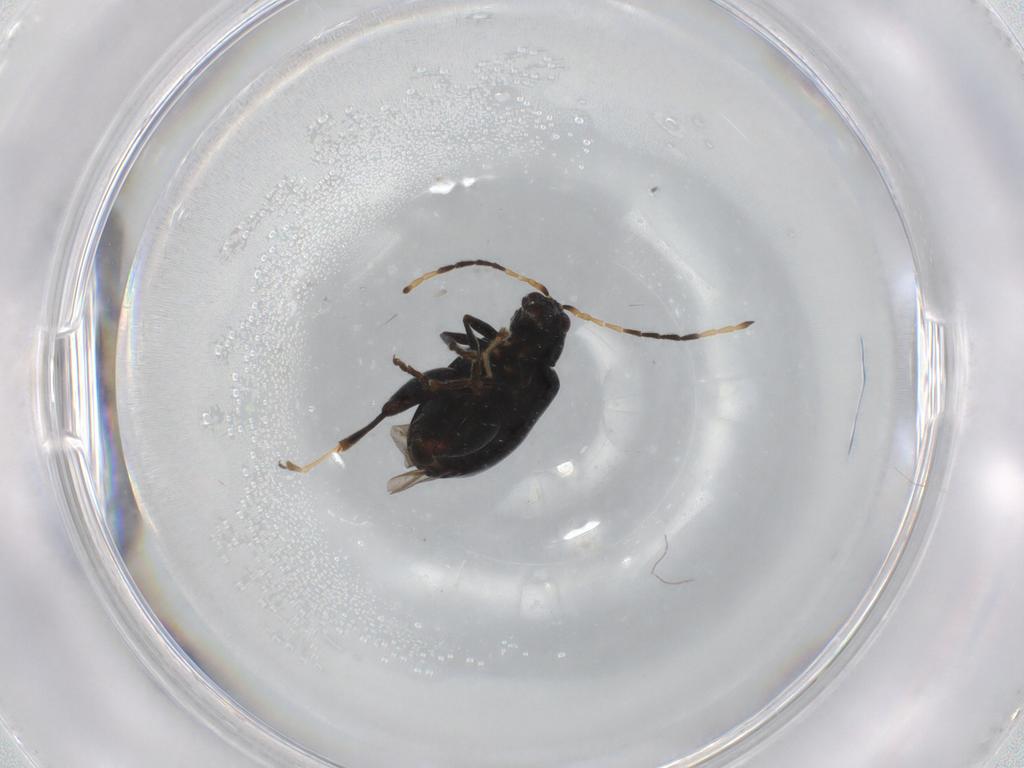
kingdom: Animalia
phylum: Arthropoda
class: Insecta
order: Coleoptera
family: Chrysomelidae
